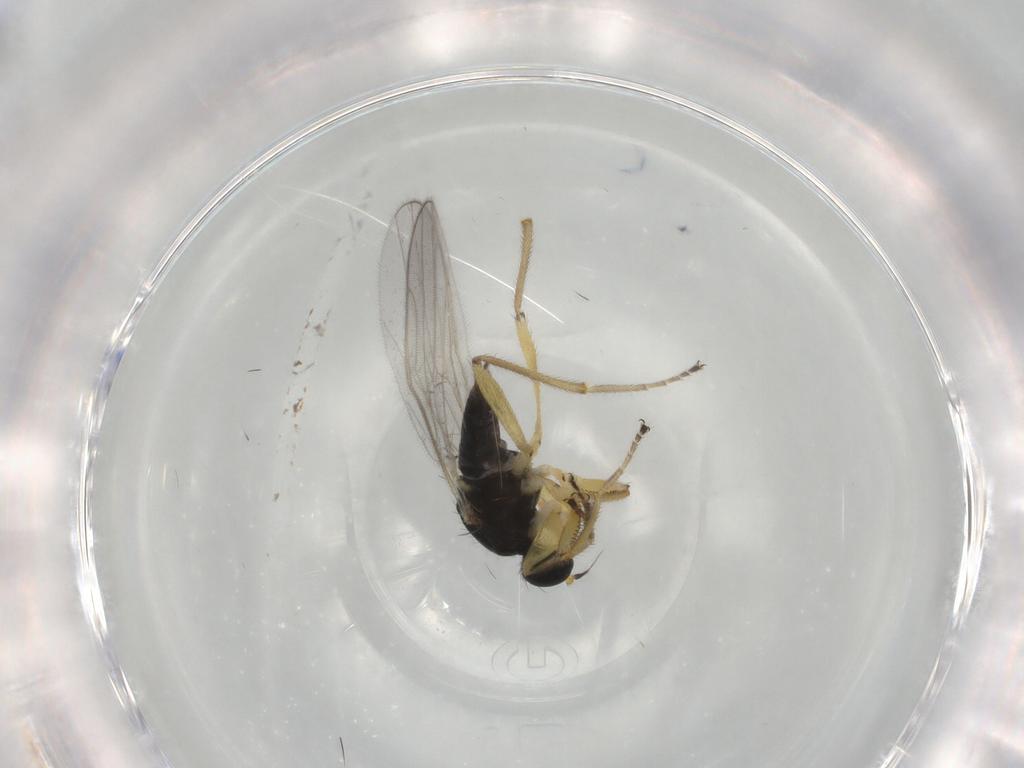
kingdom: Animalia
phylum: Arthropoda
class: Insecta
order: Diptera
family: Sciaridae
